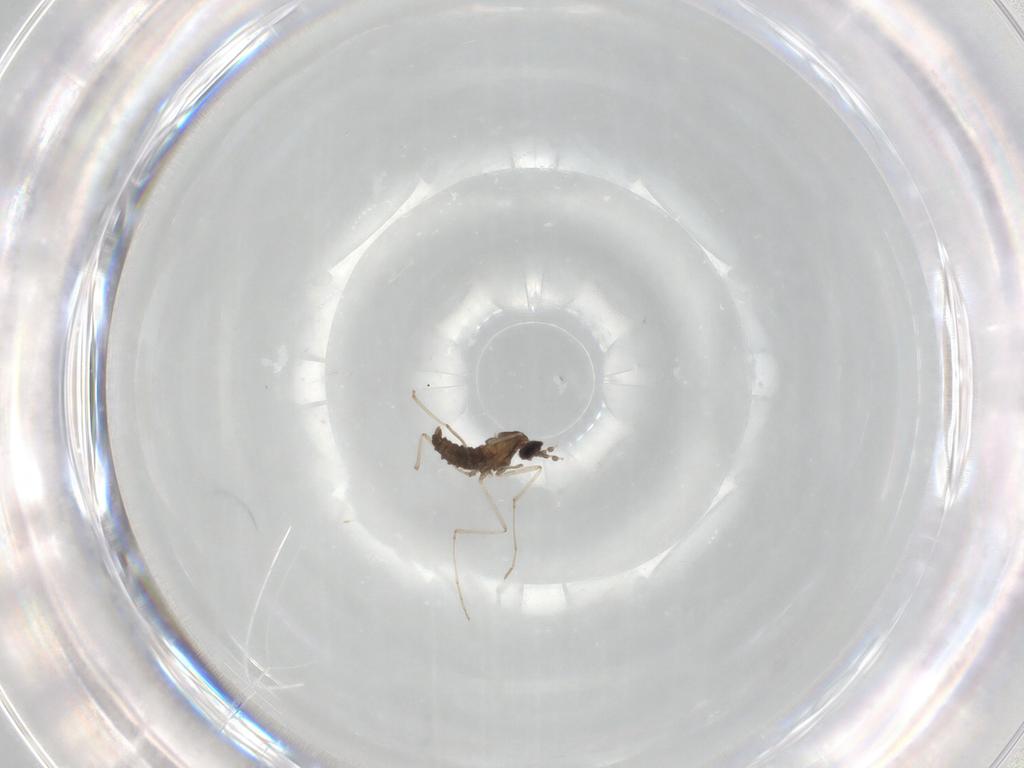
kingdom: Animalia
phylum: Arthropoda
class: Insecta
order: Diptera
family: Cecidomyiidae
